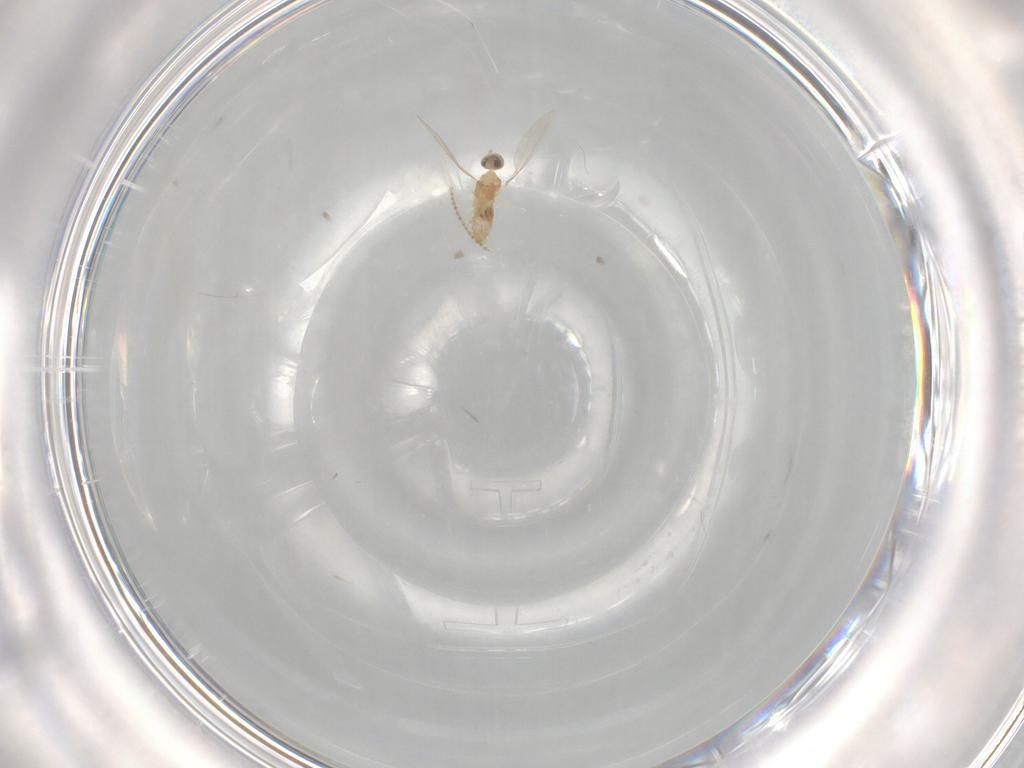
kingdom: Animalia
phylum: Arthropoda
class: Insecta
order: Diptera
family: Cecidomyiidae
